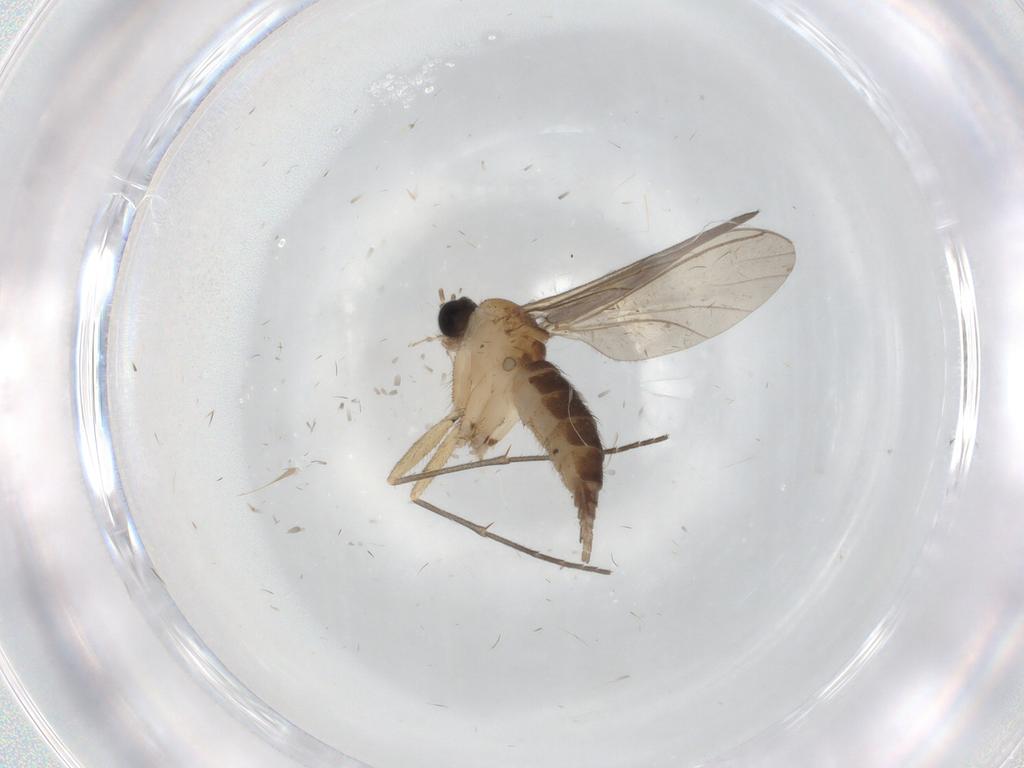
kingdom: Animalia
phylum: Arthropoda
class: Insecta
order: Diptera
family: Sciaridae
